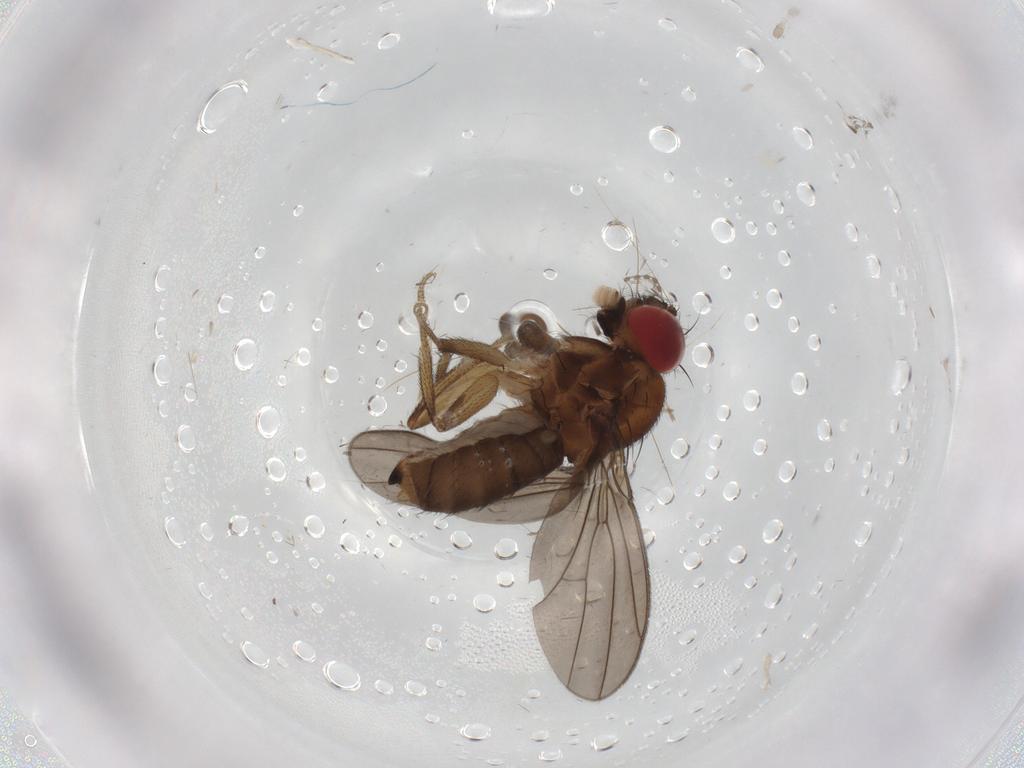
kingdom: Animalia
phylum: Arthropoda
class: Insecta
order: Diptera
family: Drosophilidae
